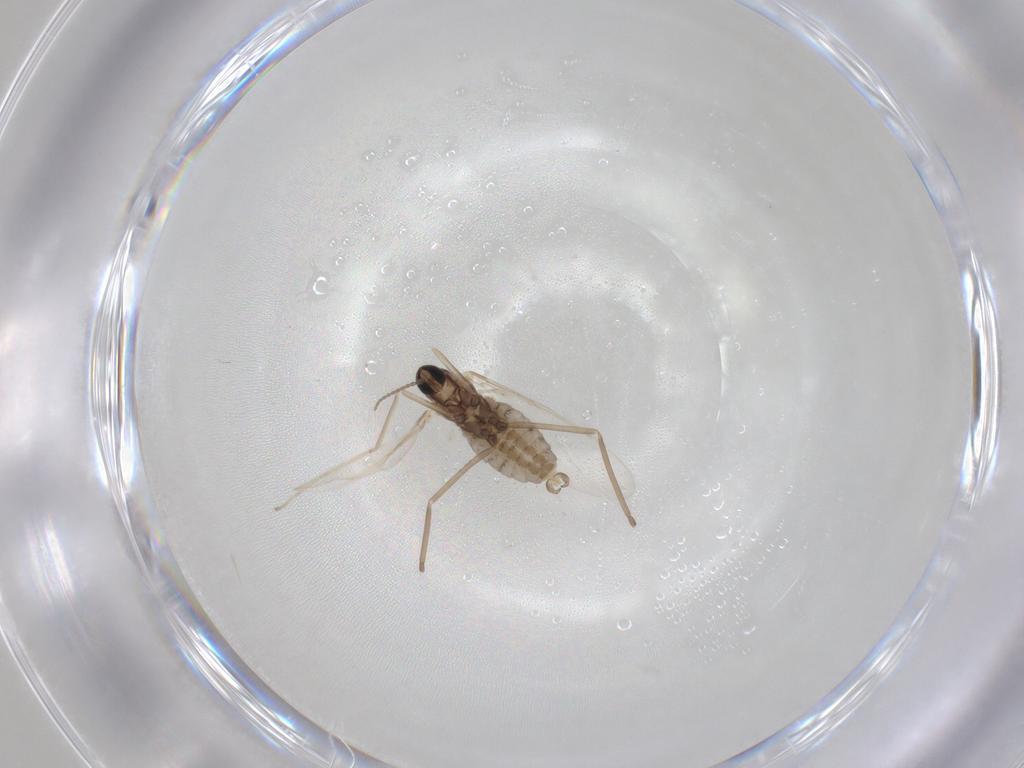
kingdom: Animalia
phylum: Arthropoda
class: Insecta
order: Diptera
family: Cecidomyiidae
